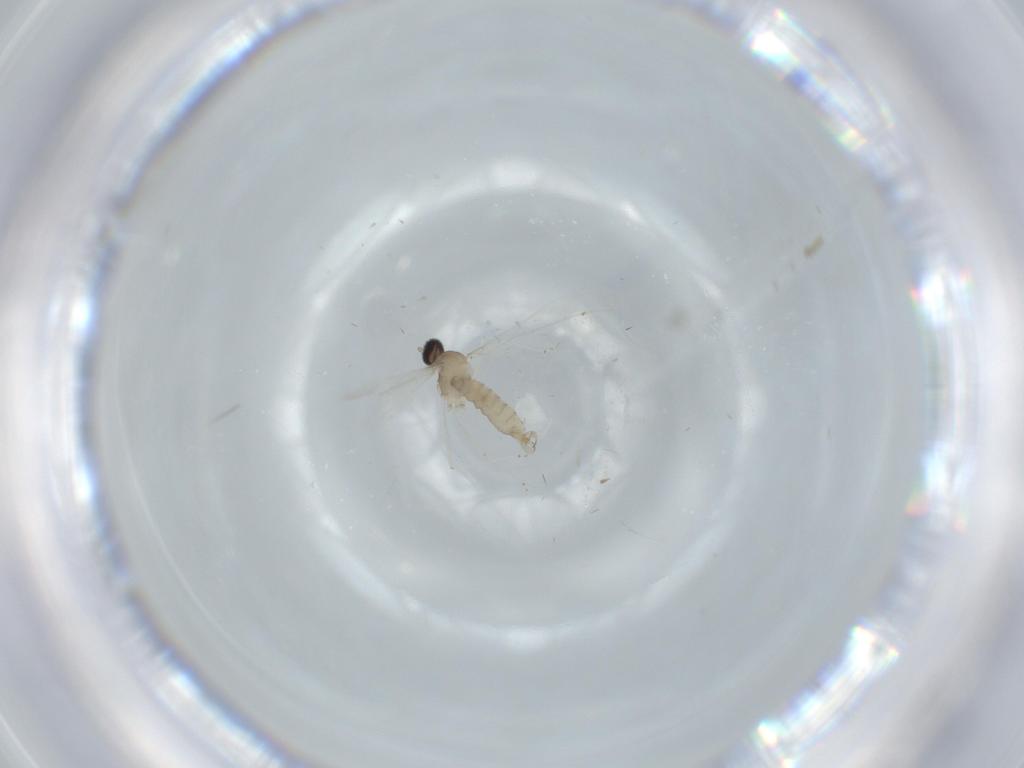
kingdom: Animalia
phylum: Arthropoda
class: Insecta
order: Diptera
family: Cecidomyiidae
